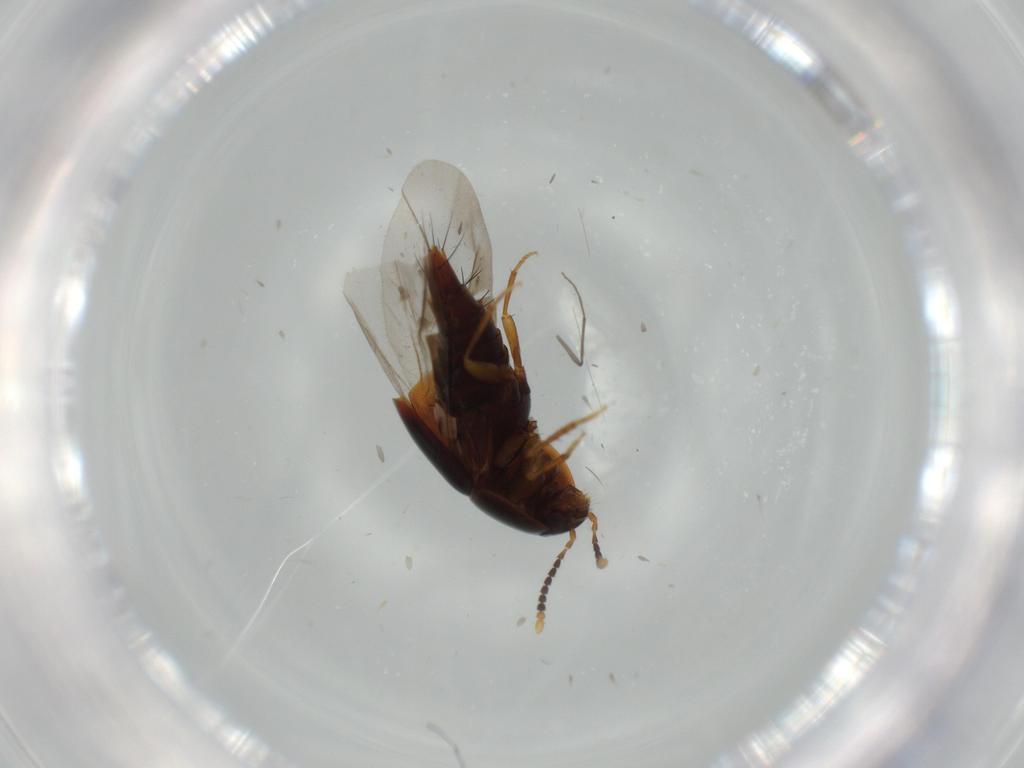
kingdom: Animalia
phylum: Arthropoda
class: Insecta
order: Coleoptera
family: Staphylinidae
